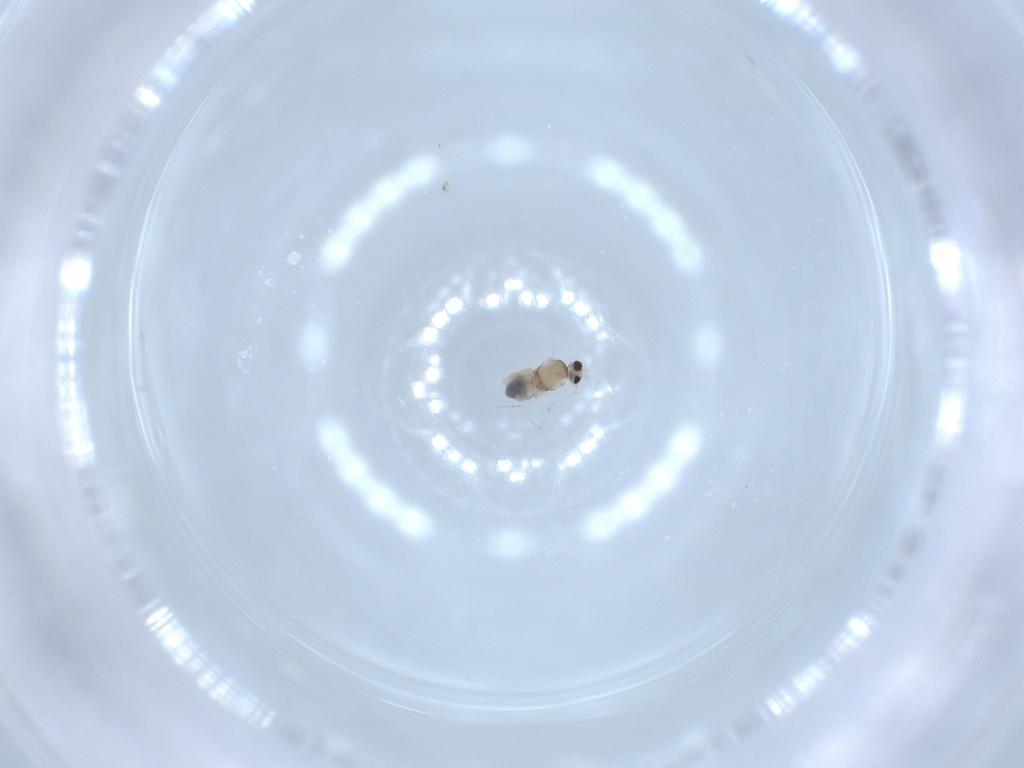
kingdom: Animalia
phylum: Arthropoda
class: Insecta
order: Diptera
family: Cecidomyiidae
